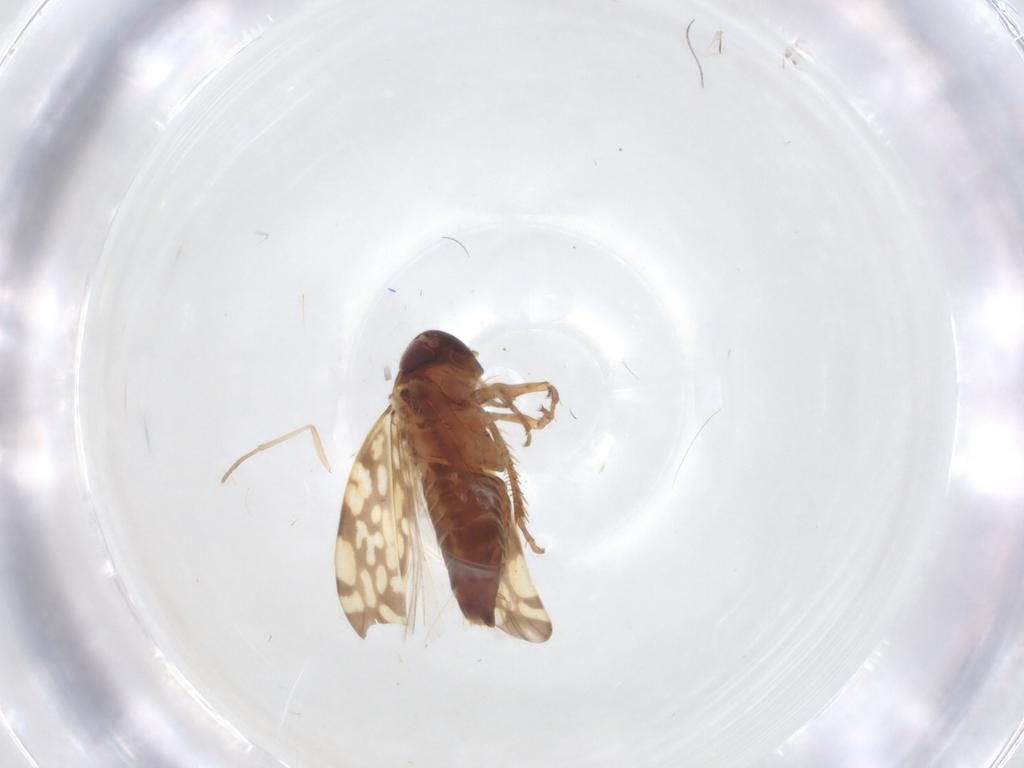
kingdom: Animalia
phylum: Arthropoda
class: Insecta
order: Hemiptera
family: Cicadellidae
